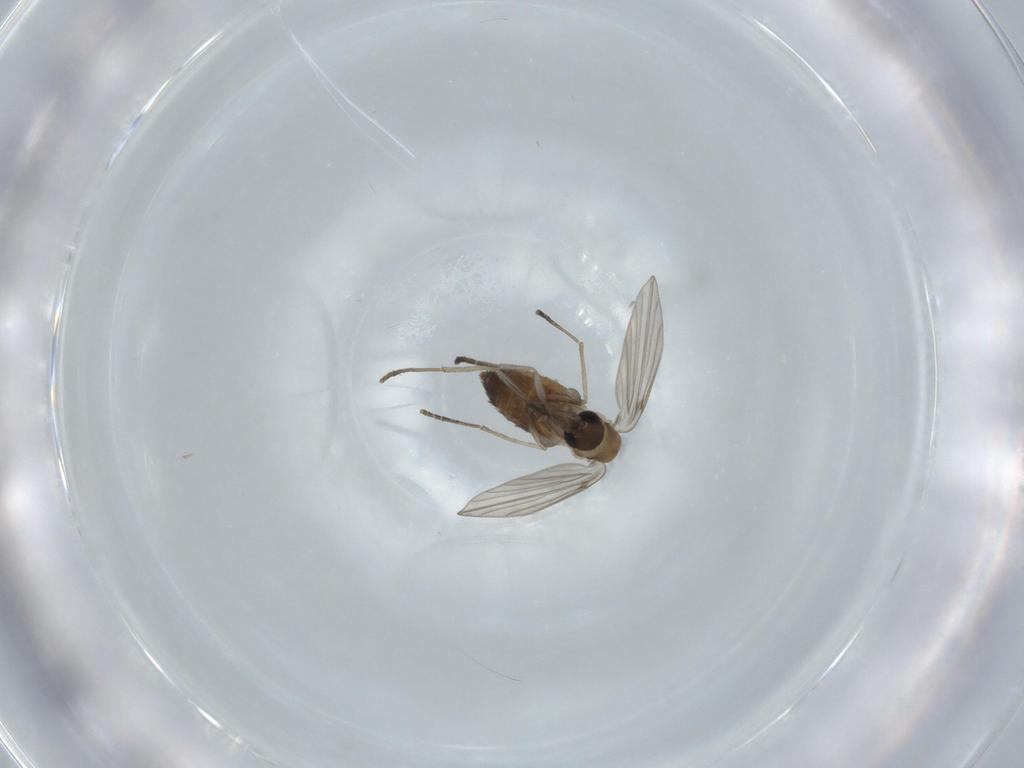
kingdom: Animalia
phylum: Arthropoda
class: Insecta
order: Diptera
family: Psychodidae
